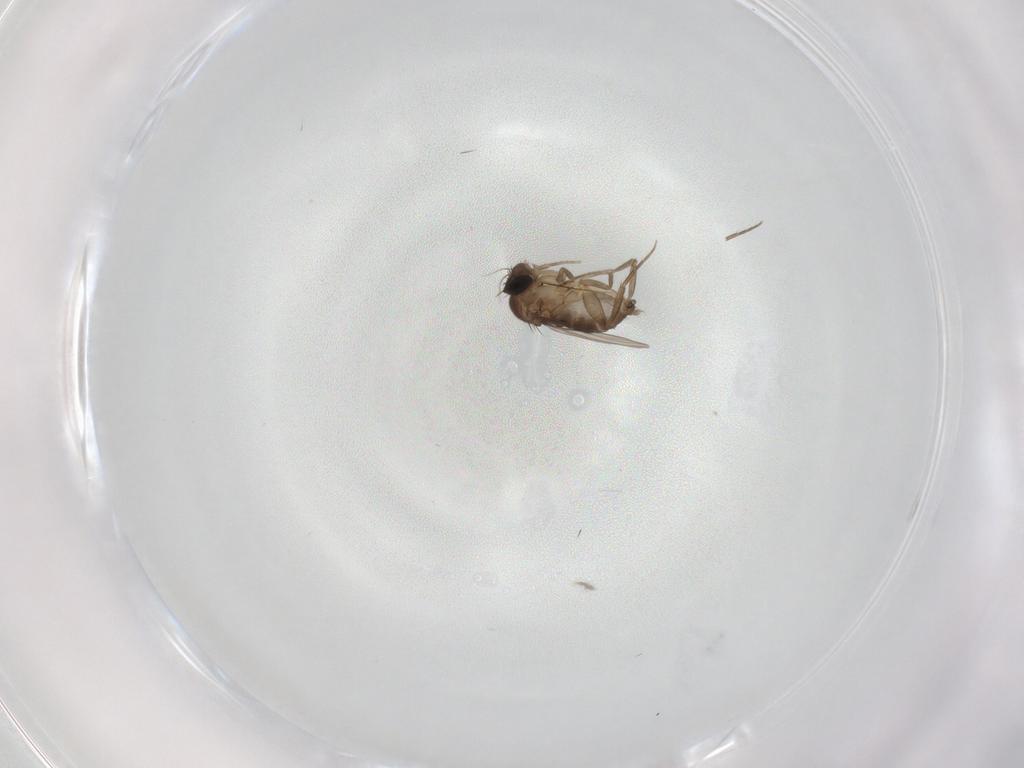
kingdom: Animalia
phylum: Arthropoda
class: Insecta
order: Diptera
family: Phoridae
